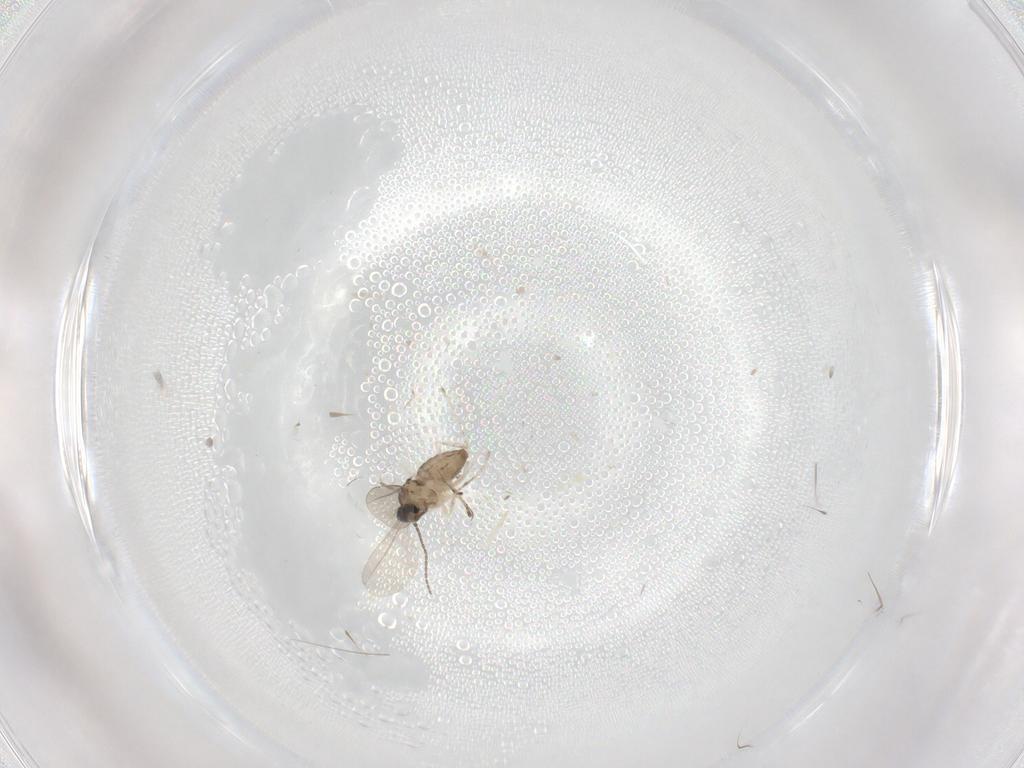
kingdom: Animalia
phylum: Arthropoda
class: Insecta
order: Diptera
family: Cecidomyiidae
